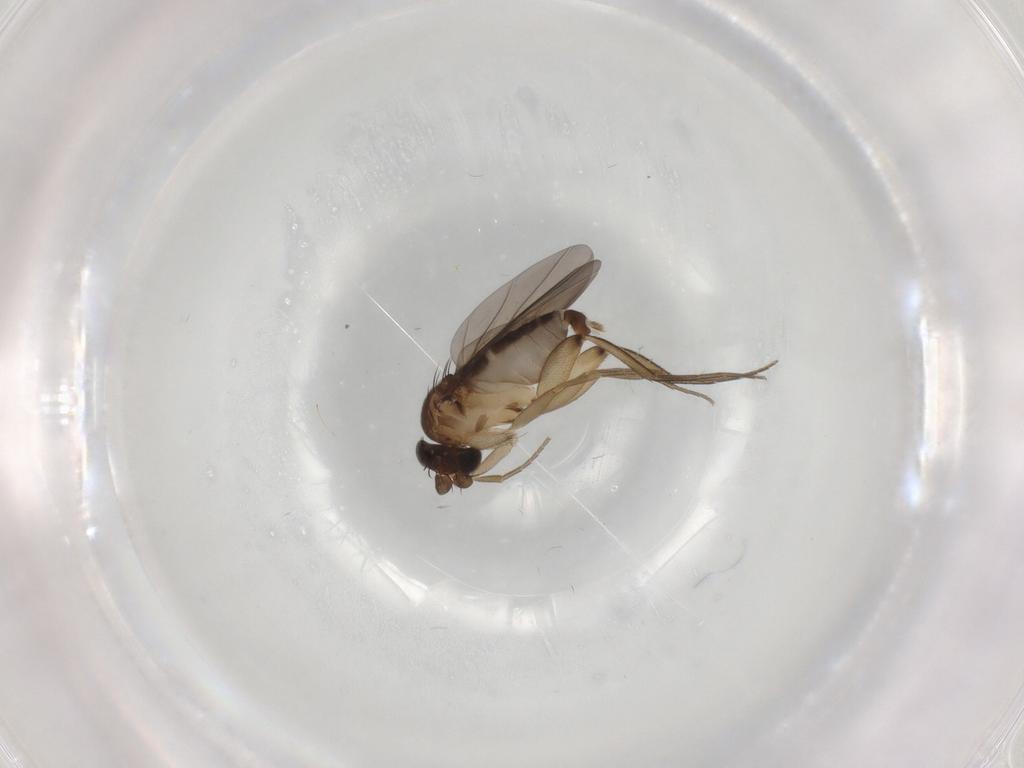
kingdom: Animalia
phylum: Arthropoda
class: Insecta
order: Diptera
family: Phoridae
